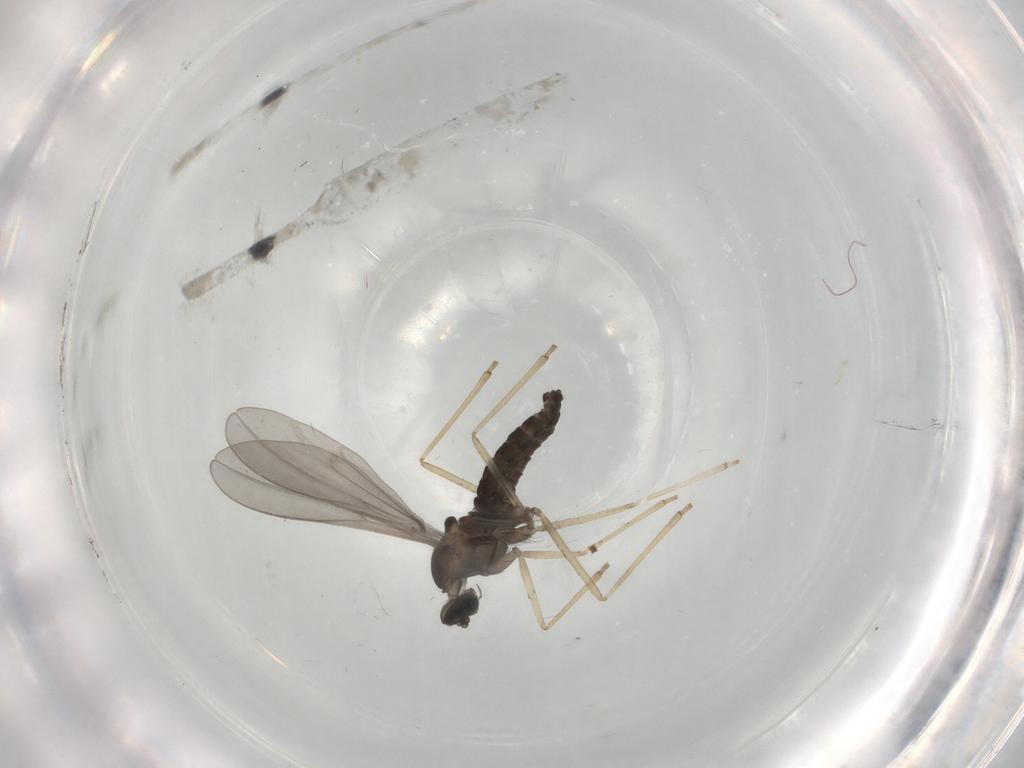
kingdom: Animalia
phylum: Arthropoda
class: Insecta
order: Diptera
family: Cecidomyiidae
